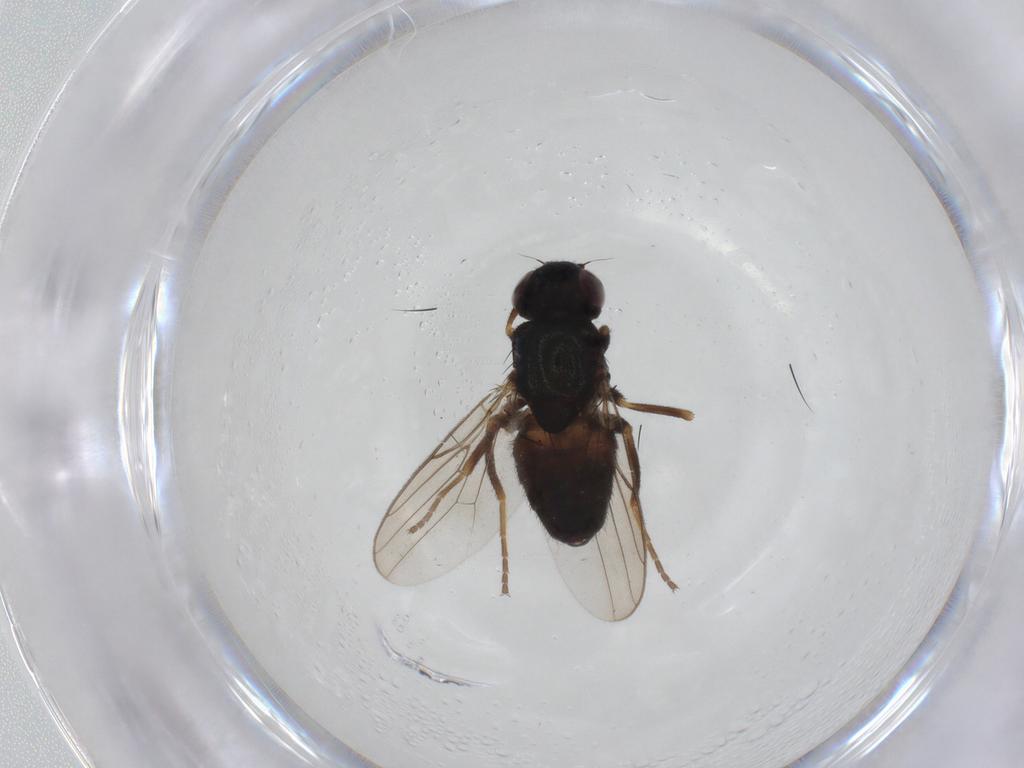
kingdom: Animalia
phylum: Arthropoda
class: Insecta
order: Diptera
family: Chloropidae
